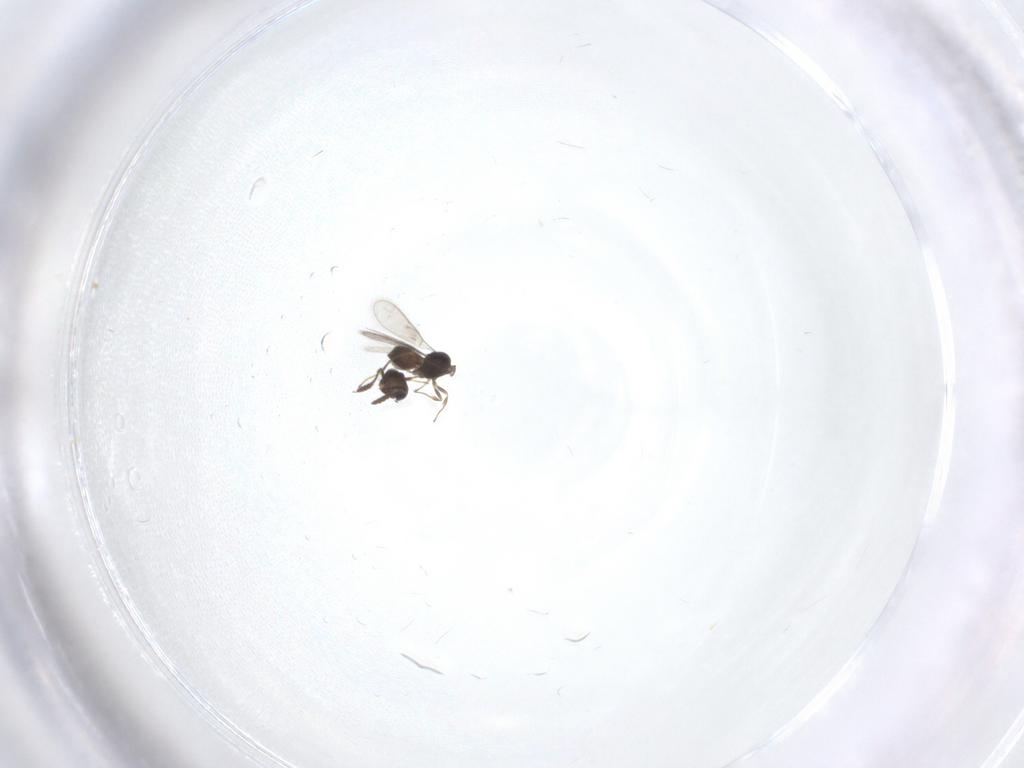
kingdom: Animalia
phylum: Arthropoda
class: Insecta
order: Hymenoptera
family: Scelionidae
